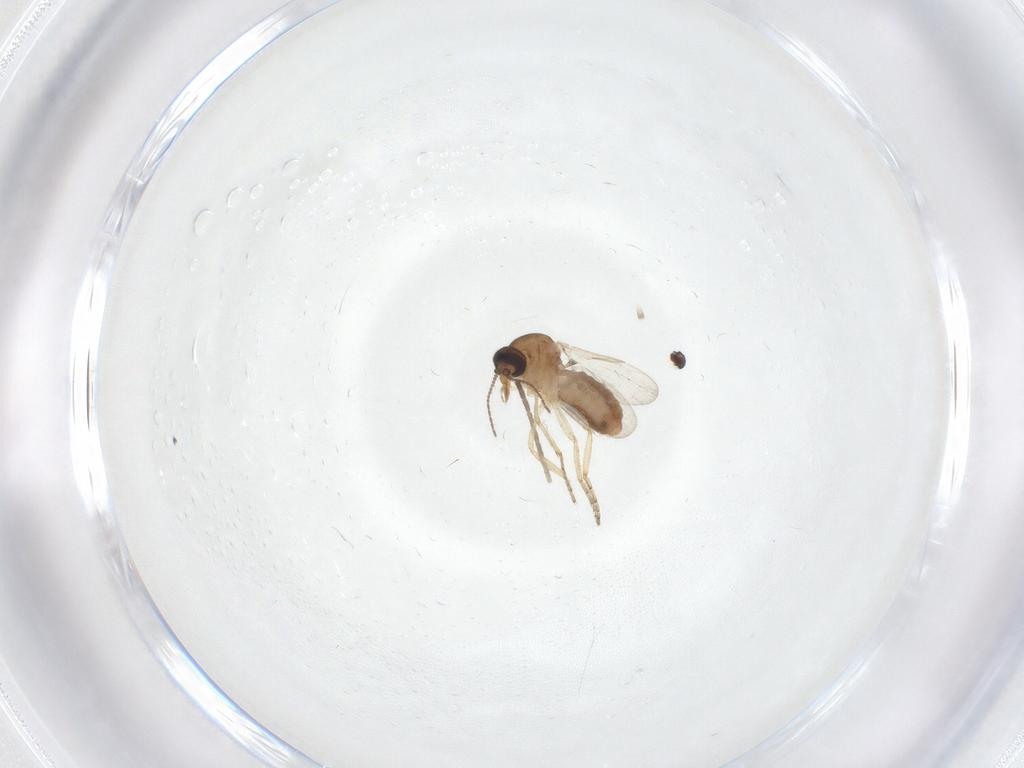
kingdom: Animalia
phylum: Arthropoda
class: Insecta
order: Diptera
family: Ceratopogonidae
